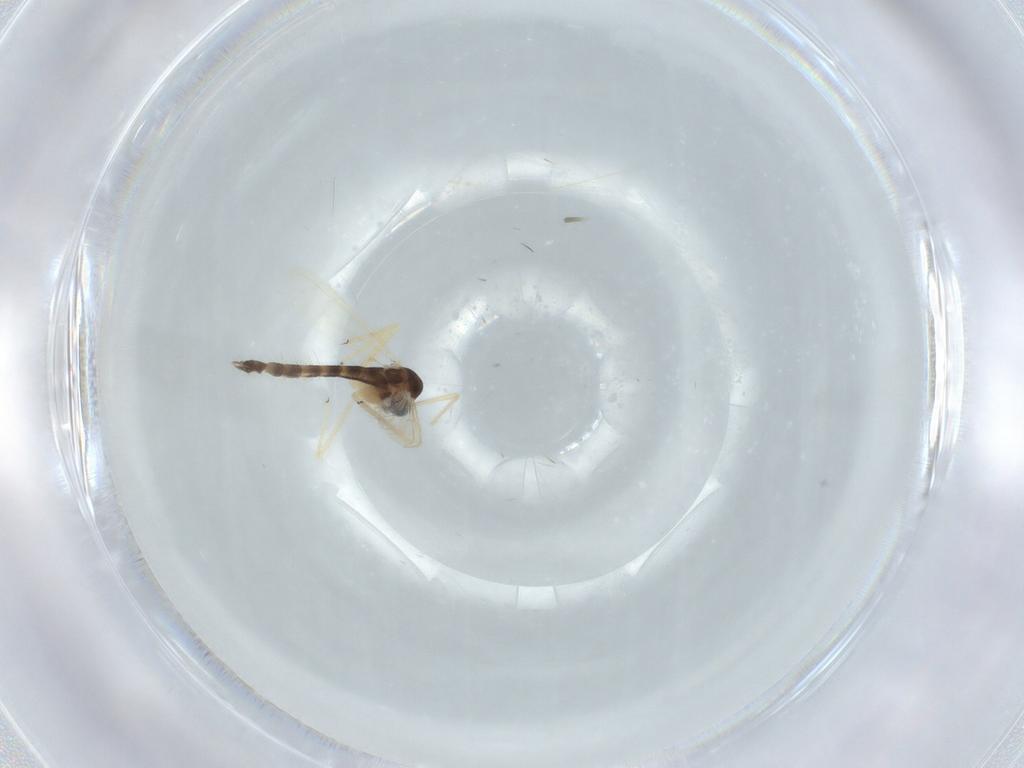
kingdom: Animalia
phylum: Arthropoda
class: Insecta
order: Diptera
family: Chironomidae
